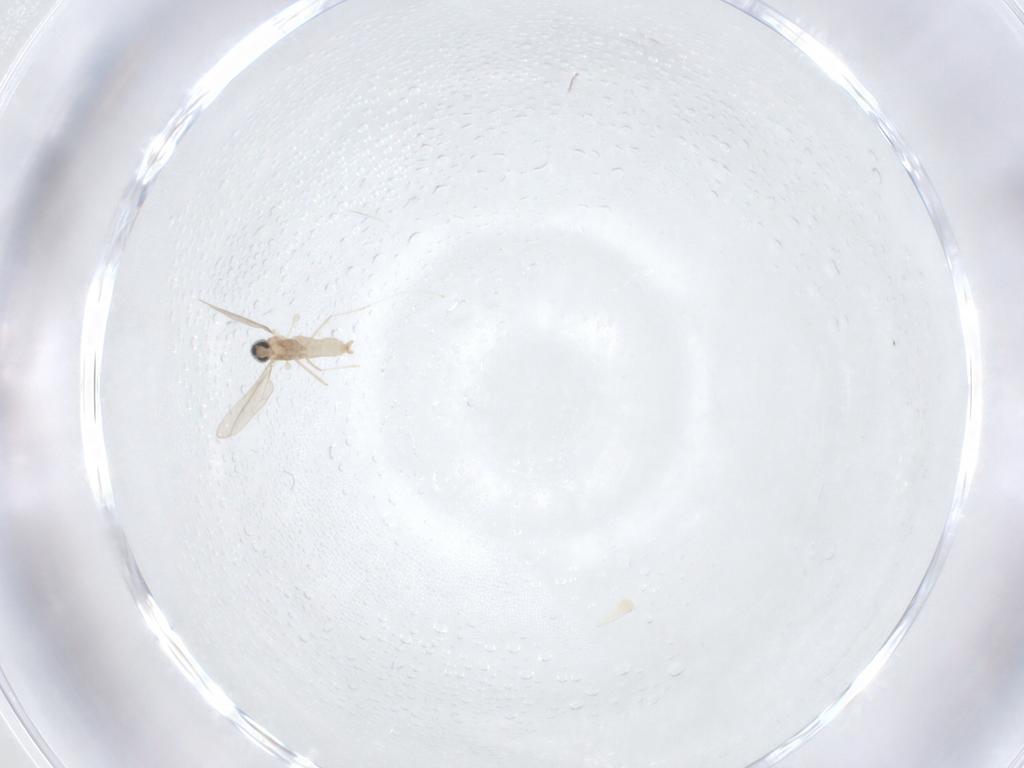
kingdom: Animalia
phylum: Arthropoda
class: Insecta
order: Diptera
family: Cecidomyiidae
